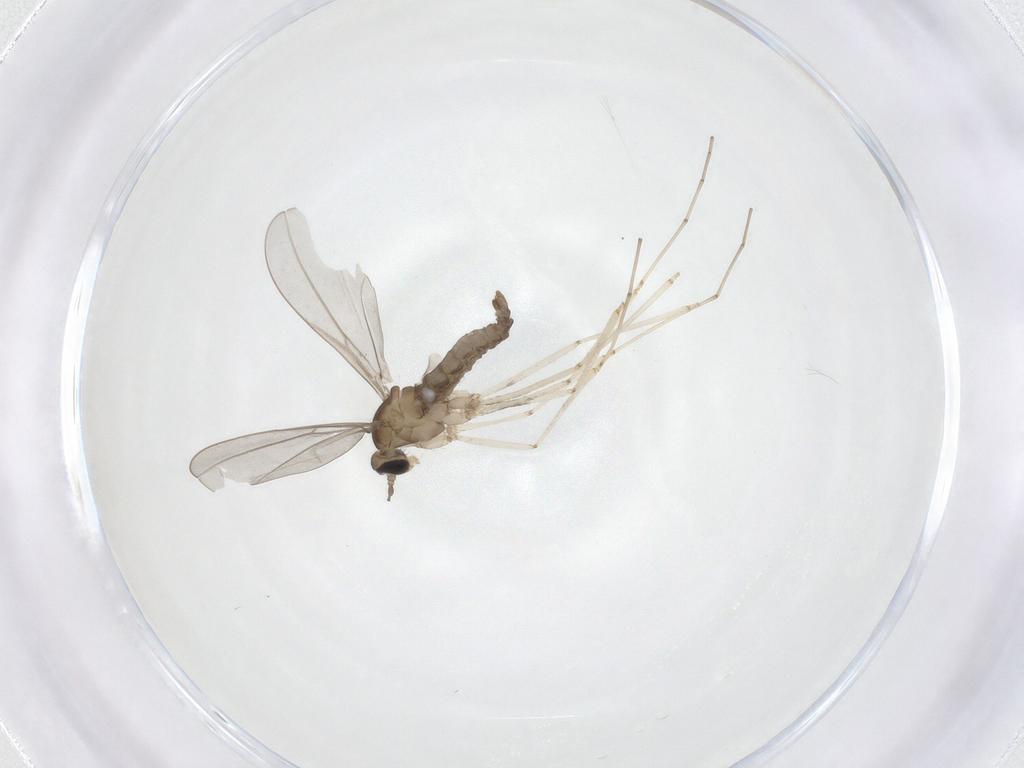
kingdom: Animalia
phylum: Arthropoda
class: Insecta
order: Diptera
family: Cecidomyiidae
